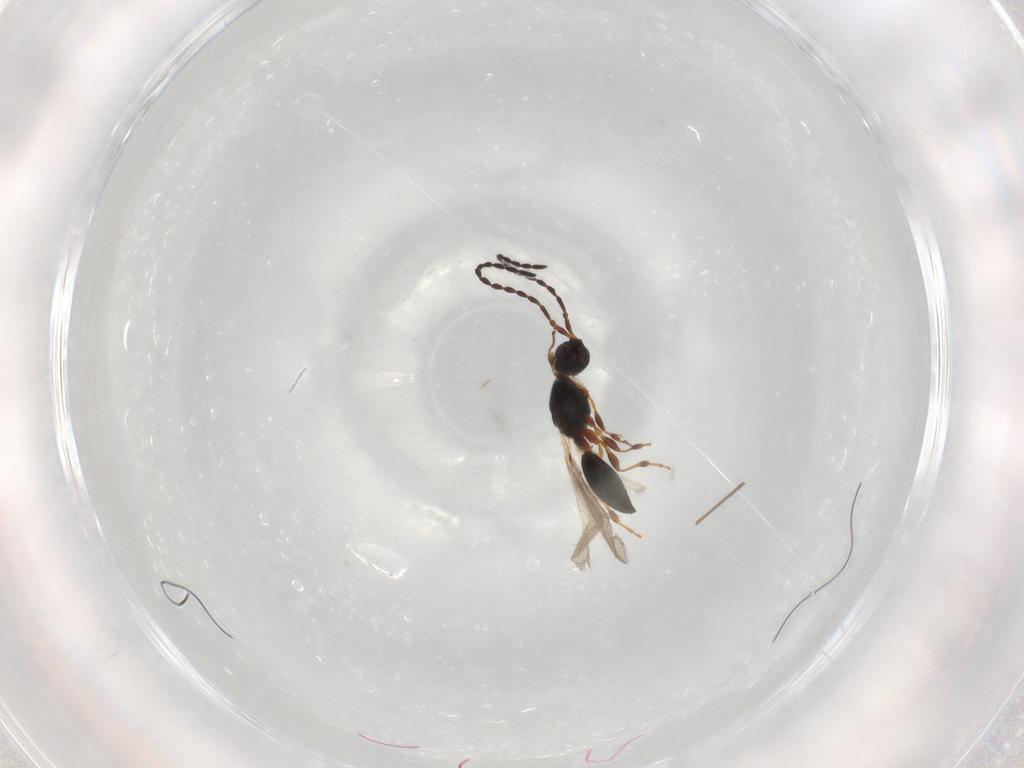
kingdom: Animalia
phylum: Arthropoda
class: Insecta
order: Hymenoptera
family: Diapriidae
